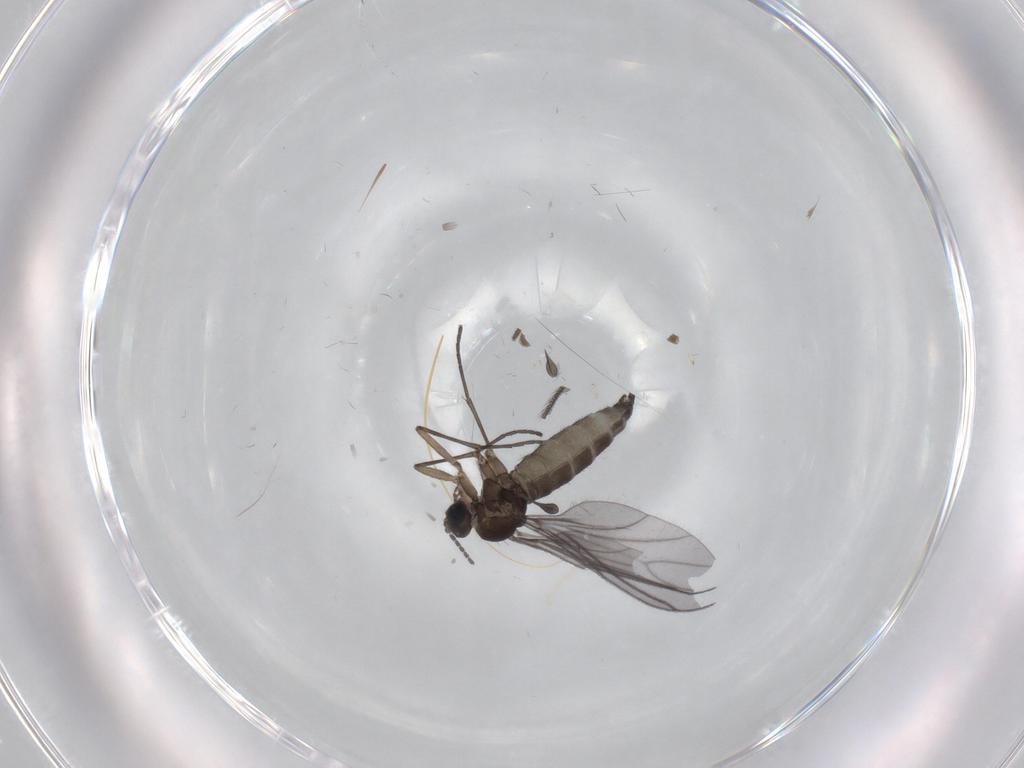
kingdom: Animalia
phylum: Arthropoda
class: Insecta
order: Diptera
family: Sciaridae
